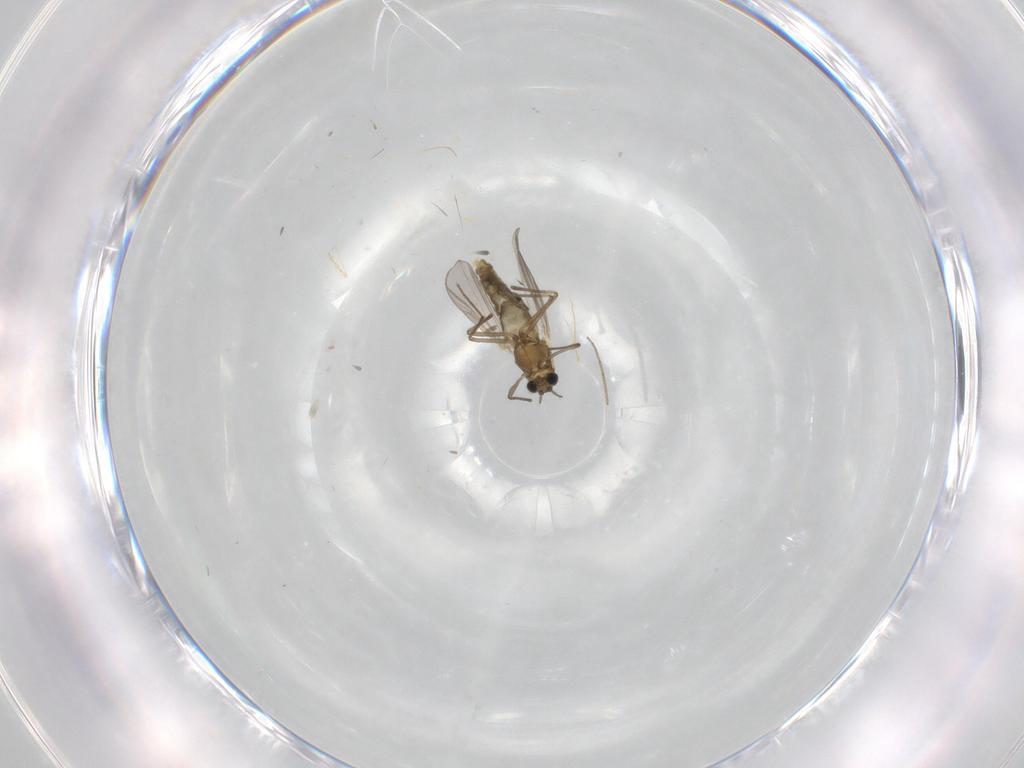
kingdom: Animalia
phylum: Arthropoda
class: Insecta
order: Diptera
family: Chironomidae
